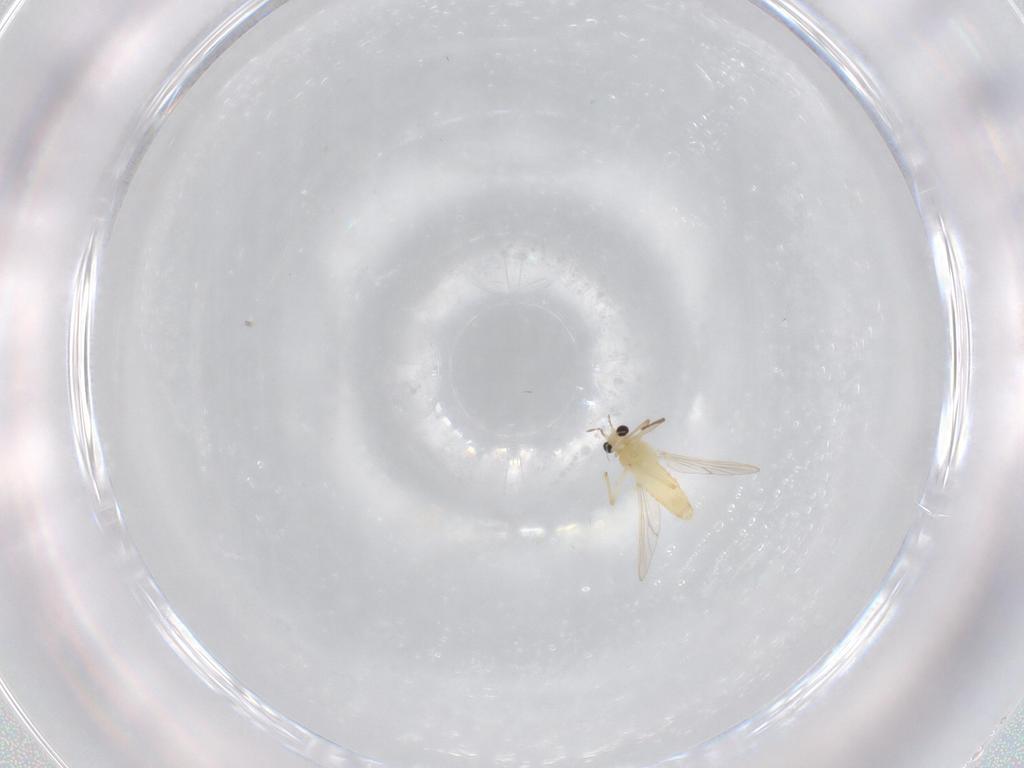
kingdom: Animalia
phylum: Arthropoda
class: Insecta
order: Diptera
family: Chironomidae
